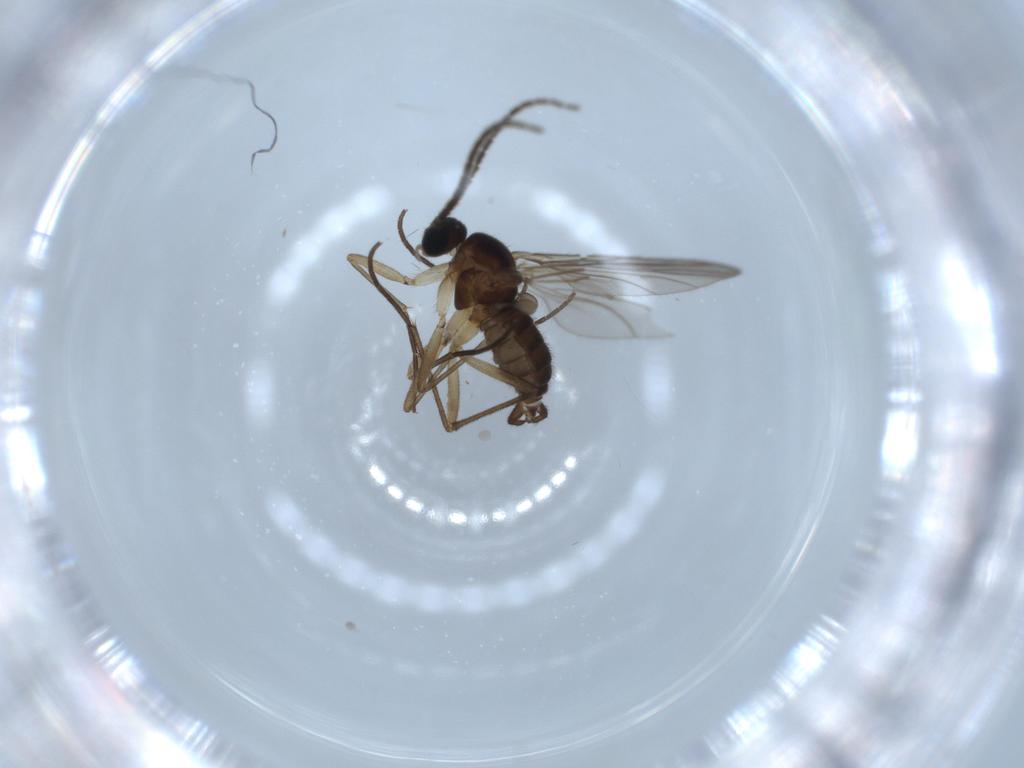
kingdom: Animalia
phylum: Arthropoda
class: Insecta
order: Diptera
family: Sciaridae
